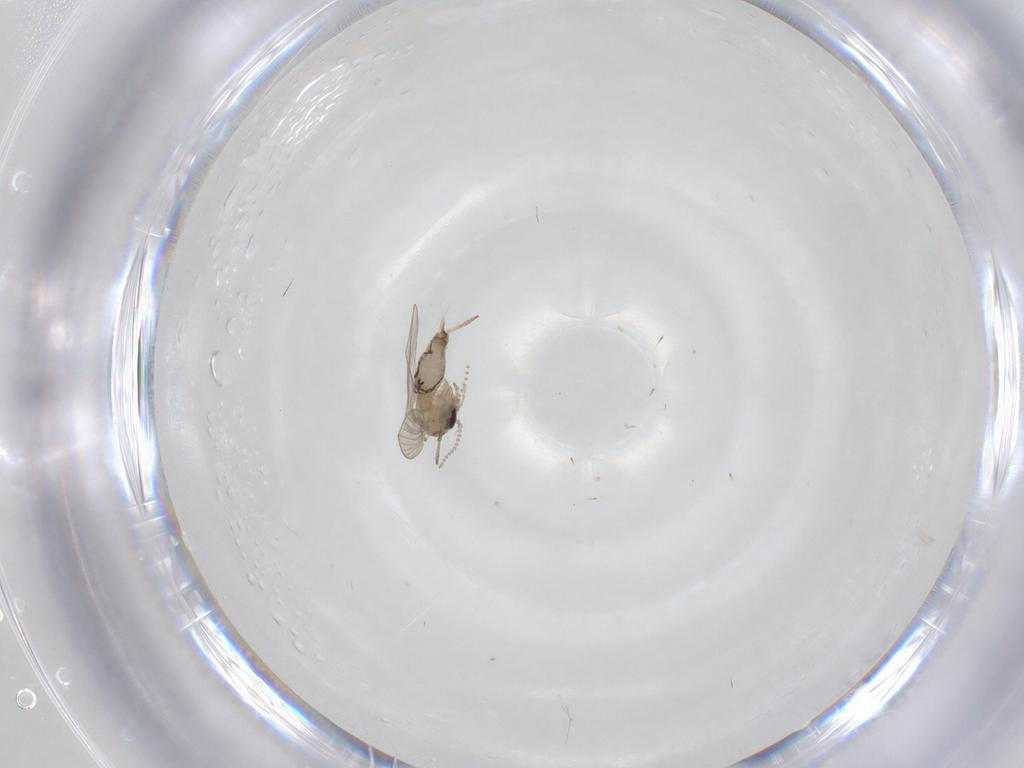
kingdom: Animalia
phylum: Arthropoda
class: Insecta
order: Diptera
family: Psychodidae
